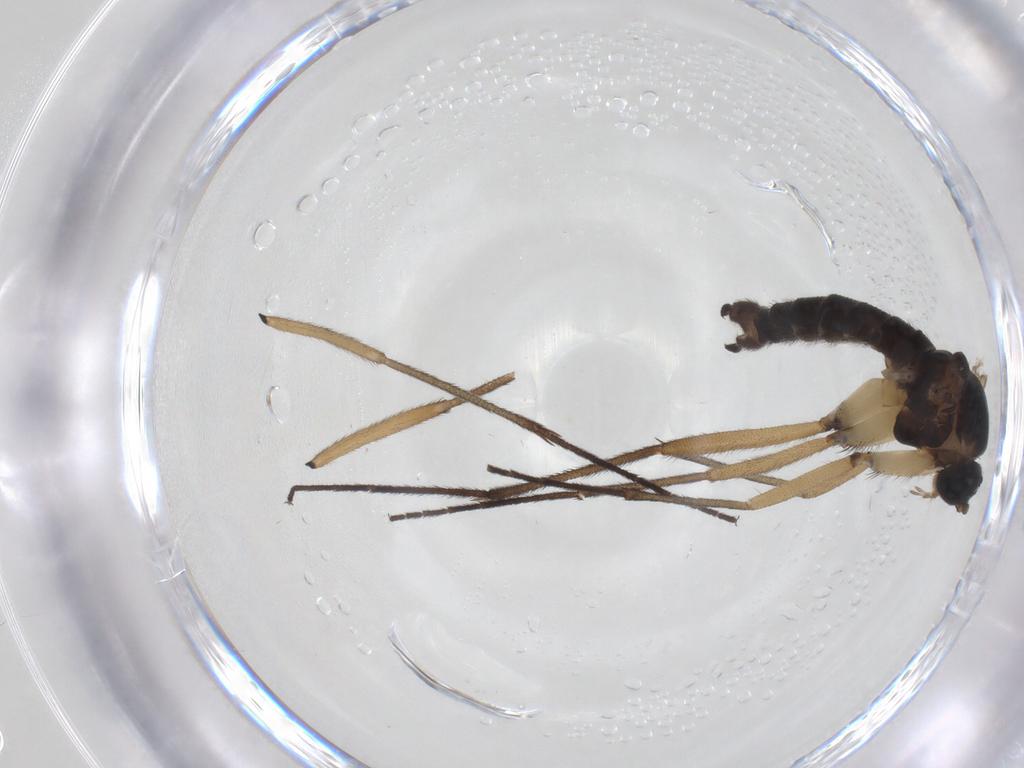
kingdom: Animalia
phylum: Arthropoda
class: Insecta
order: Diptera
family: Sciaridae
